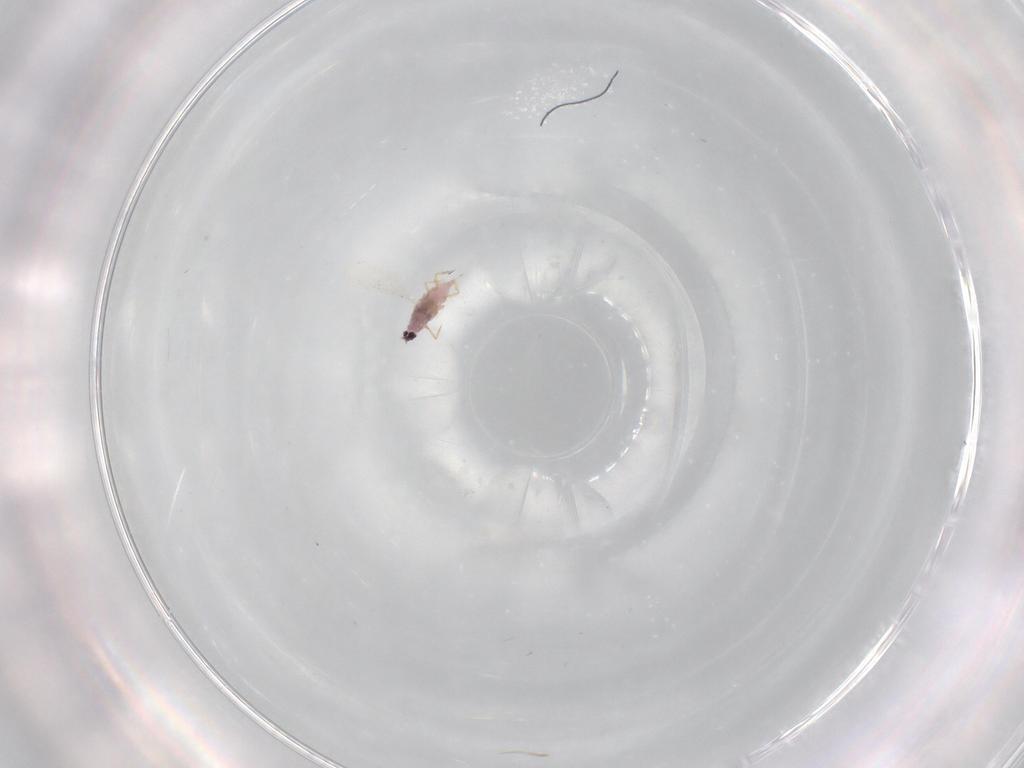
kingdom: Animalia
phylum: Arthropoda
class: Insecta
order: Hemiptera
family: Diaspididae
